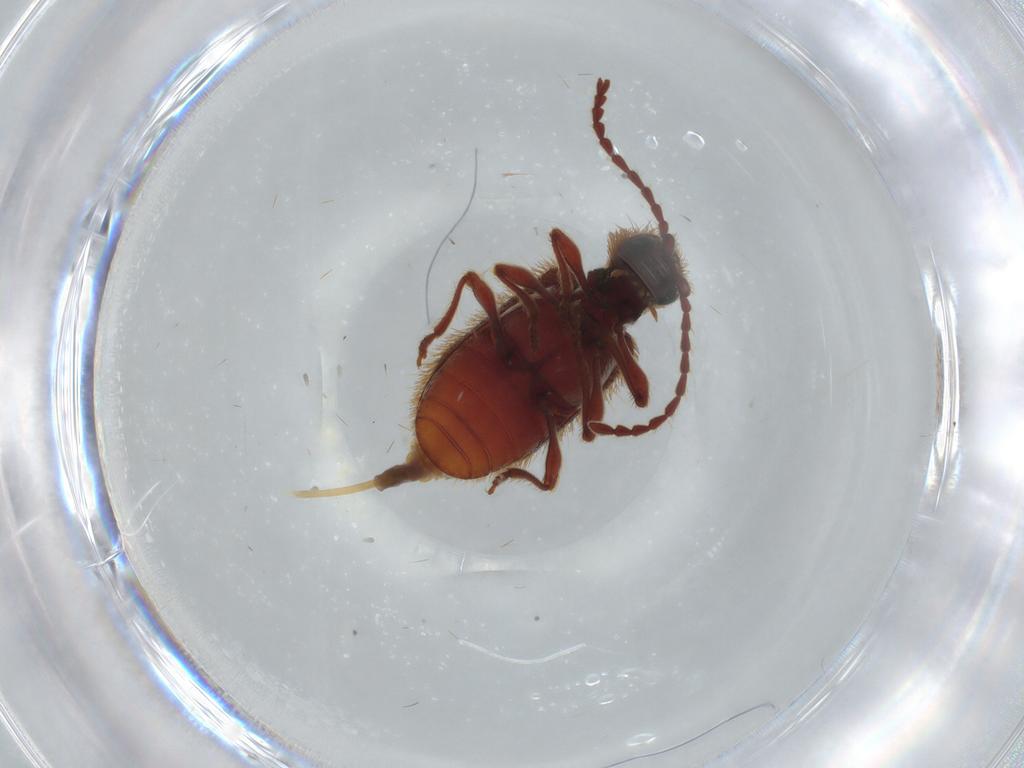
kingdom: Animalia
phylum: Arthropoda
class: Insecta
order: Coleoptera
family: Ptinidae
